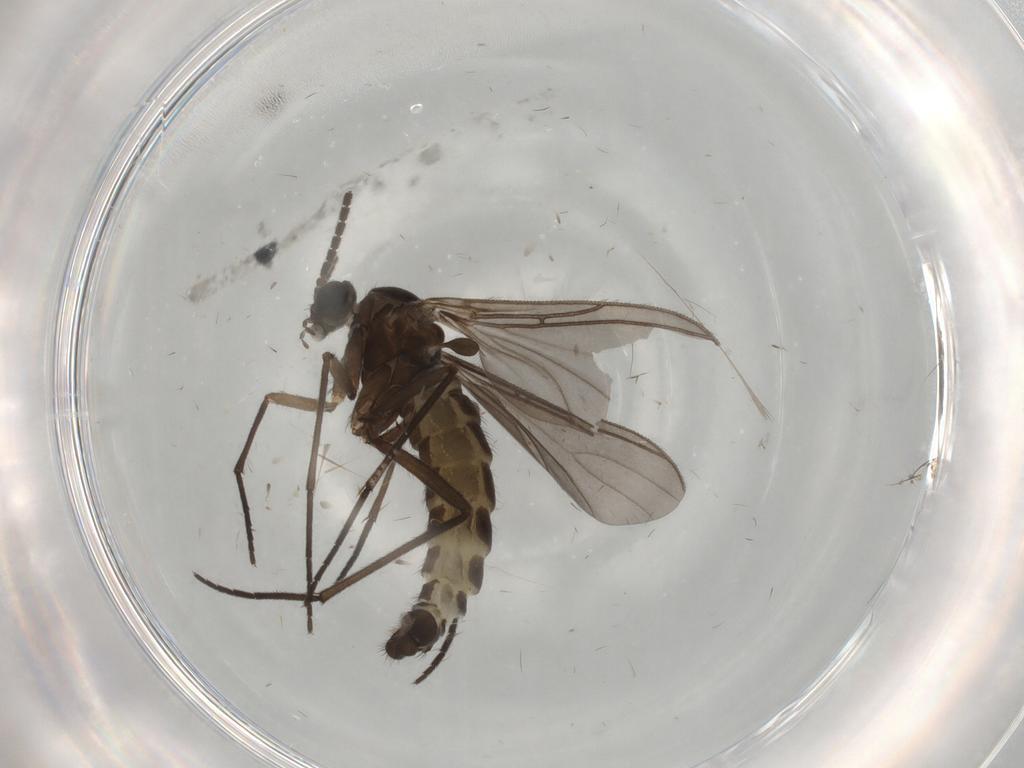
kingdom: Animalia
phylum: Arthropoda
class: Insecta
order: Diptera
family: Sciaridae
